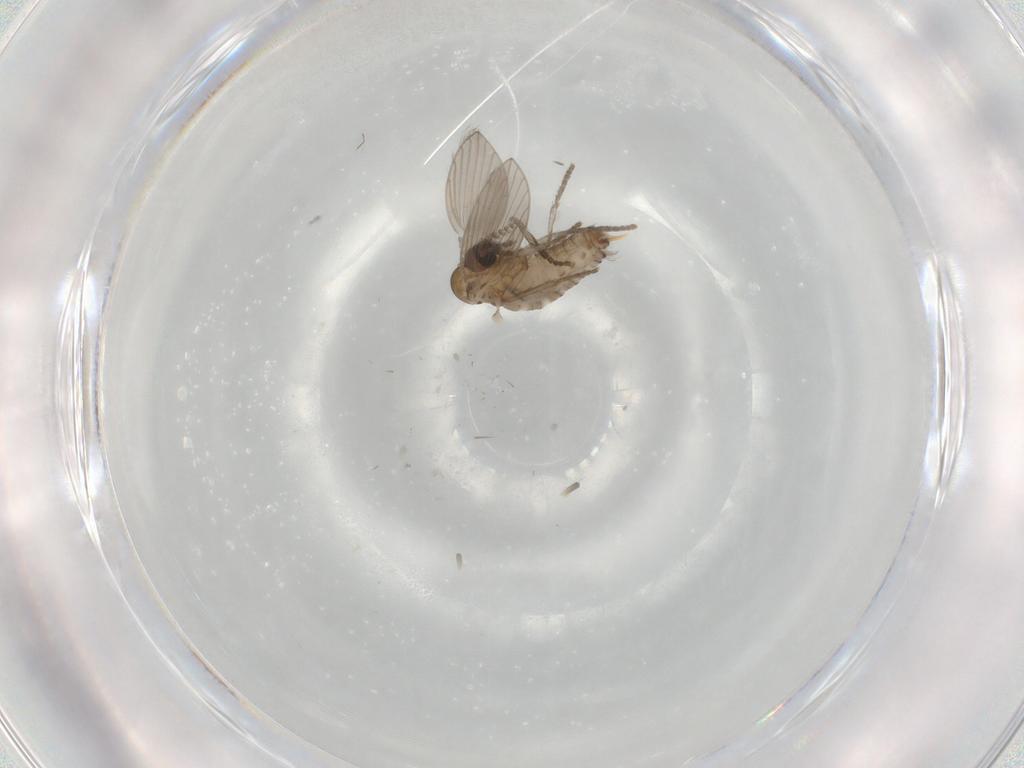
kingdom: Animalia
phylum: Arthropoda
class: Insecta
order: Diptera
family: Psychodidae
